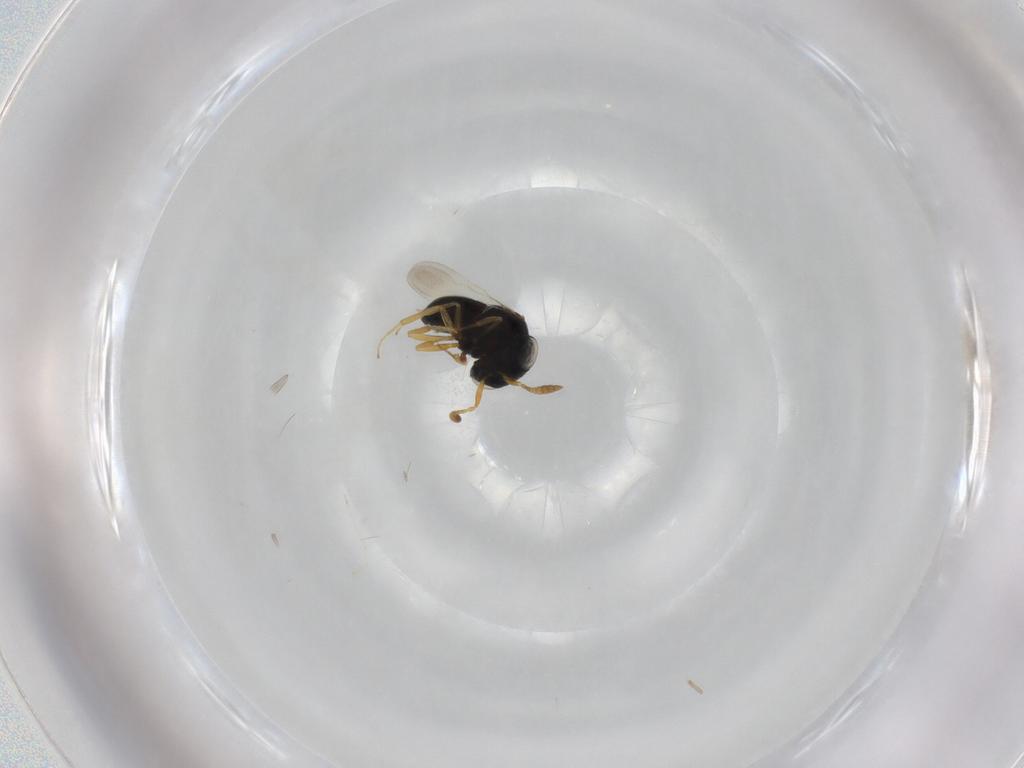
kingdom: Animalia
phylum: Arthropoda
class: Insecta
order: Hymenoptera
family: Scelionidae
